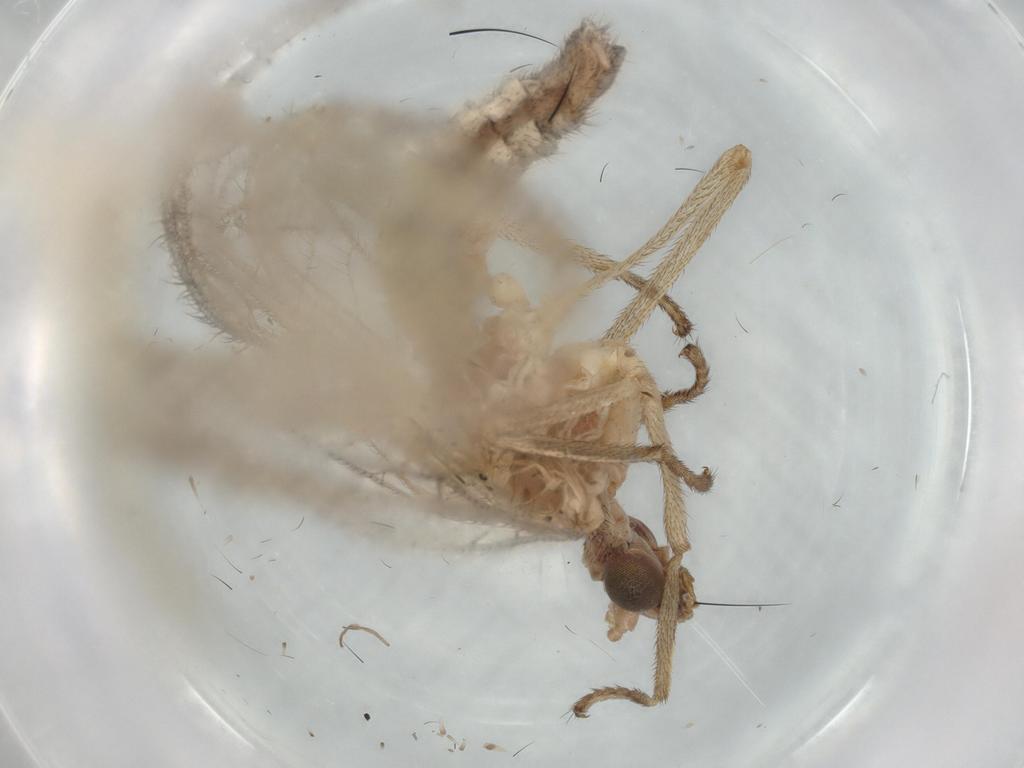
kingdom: Animalia
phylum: Arthropoda
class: Insecta
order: Neuroptera
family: Chrysopidae
